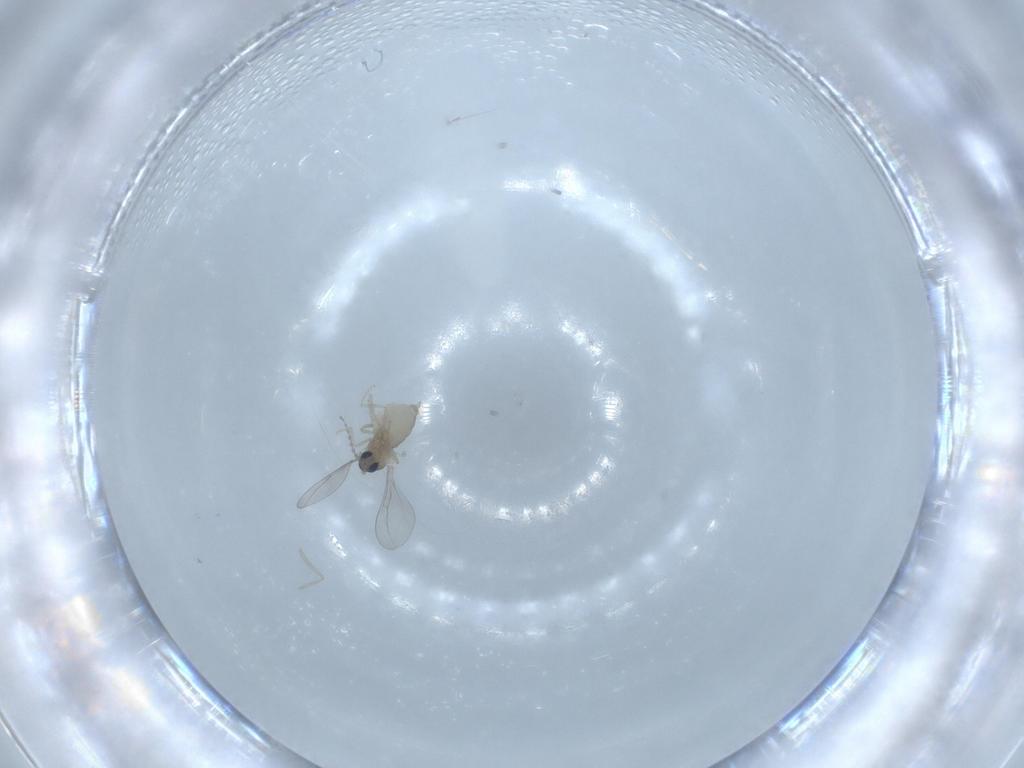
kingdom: Animalia
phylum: Arthropoda
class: Insecta
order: Diptera
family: Cecidomyiidae
